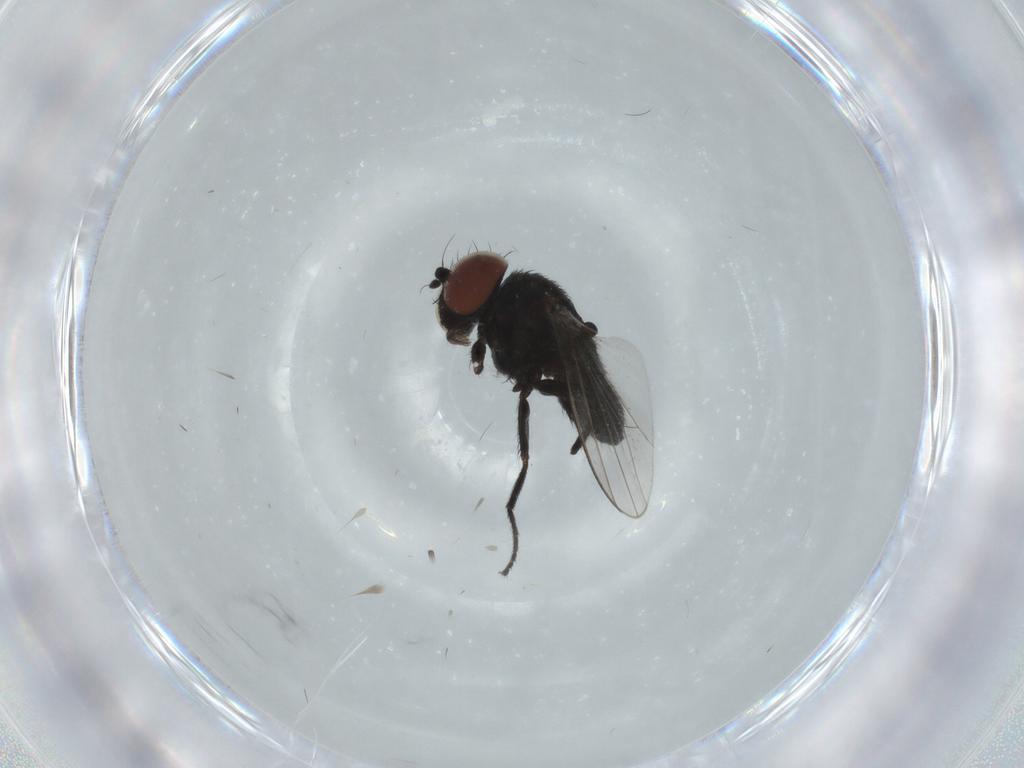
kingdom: Animalia
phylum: Arthropoda
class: Insecta
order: Diptera
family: Milichiidae
